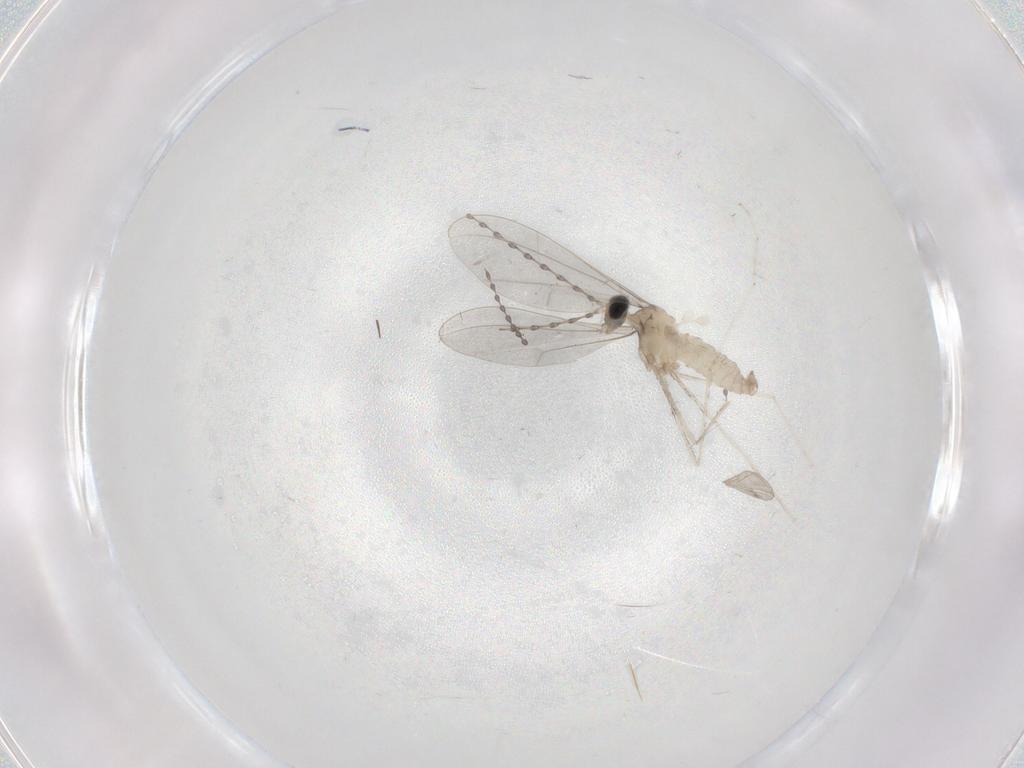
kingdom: Animalia
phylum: Arthropoda
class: Insecta
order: Diptera
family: Cecidomyiidae
